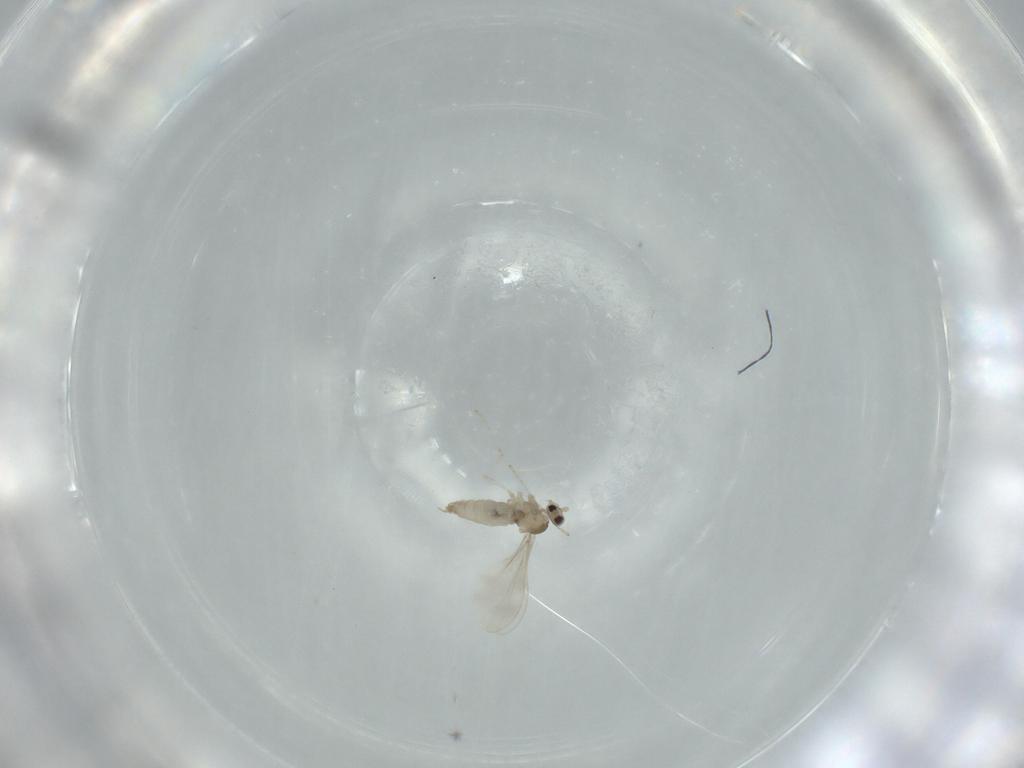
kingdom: Animalia
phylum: Arthropoda
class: Insecta
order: Diptera
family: Cecidomyiidae
